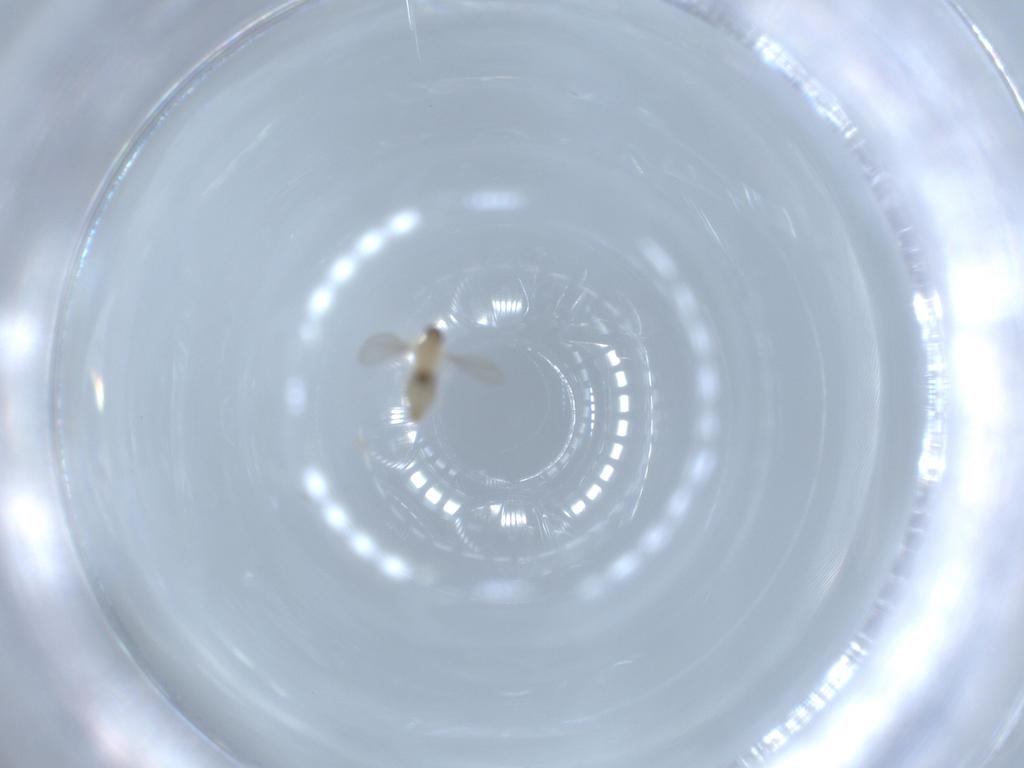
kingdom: Animalia
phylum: Arthropoda
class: Insecta
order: Diptera
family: Cecidomyiidae
